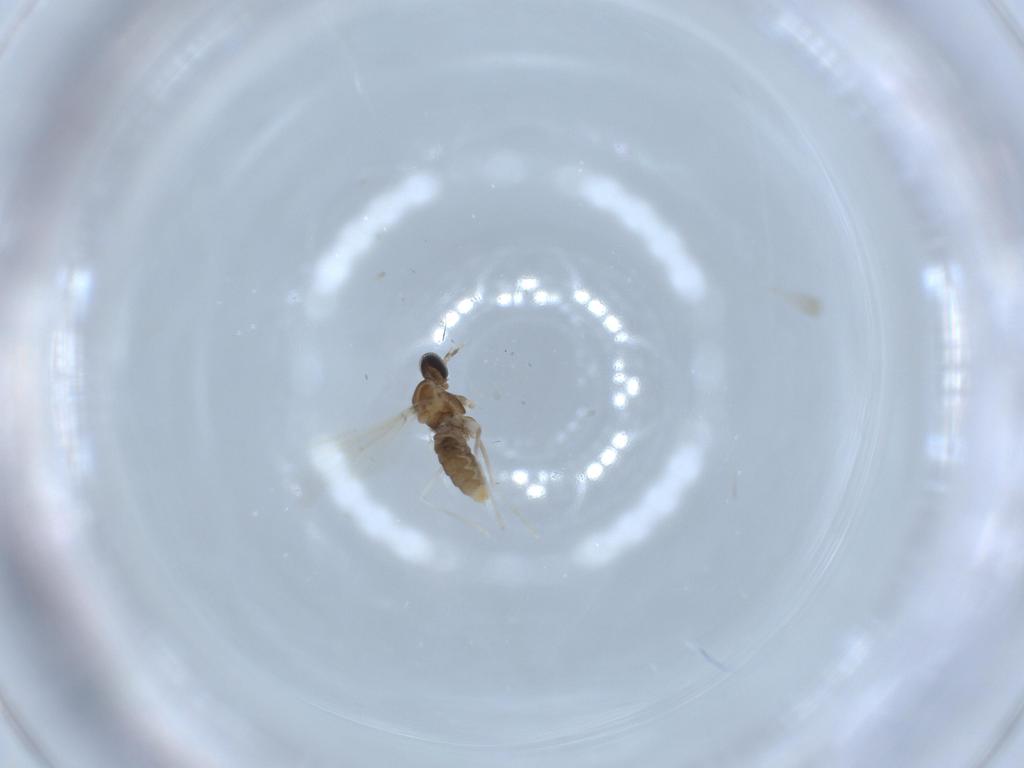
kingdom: Animalia
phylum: Arthropoda
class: Insecta
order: Diptera
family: Cecidomyiidae
